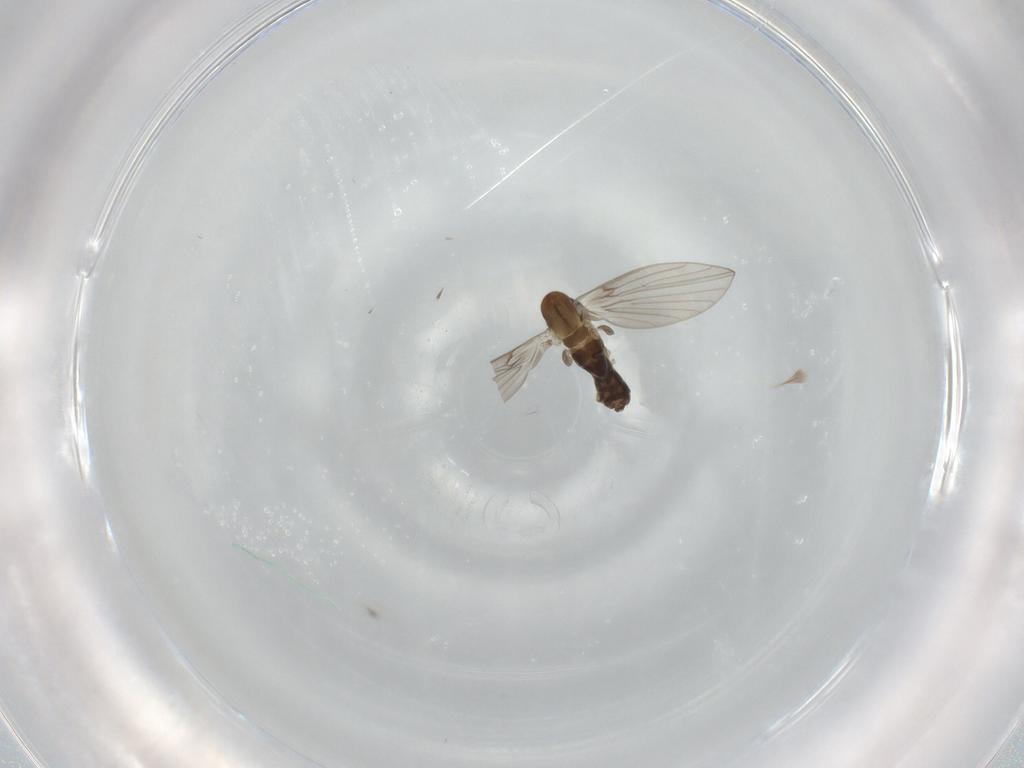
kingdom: Animalia
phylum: Arthropoda
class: Insecta
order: Diptera
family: Psychodidae
